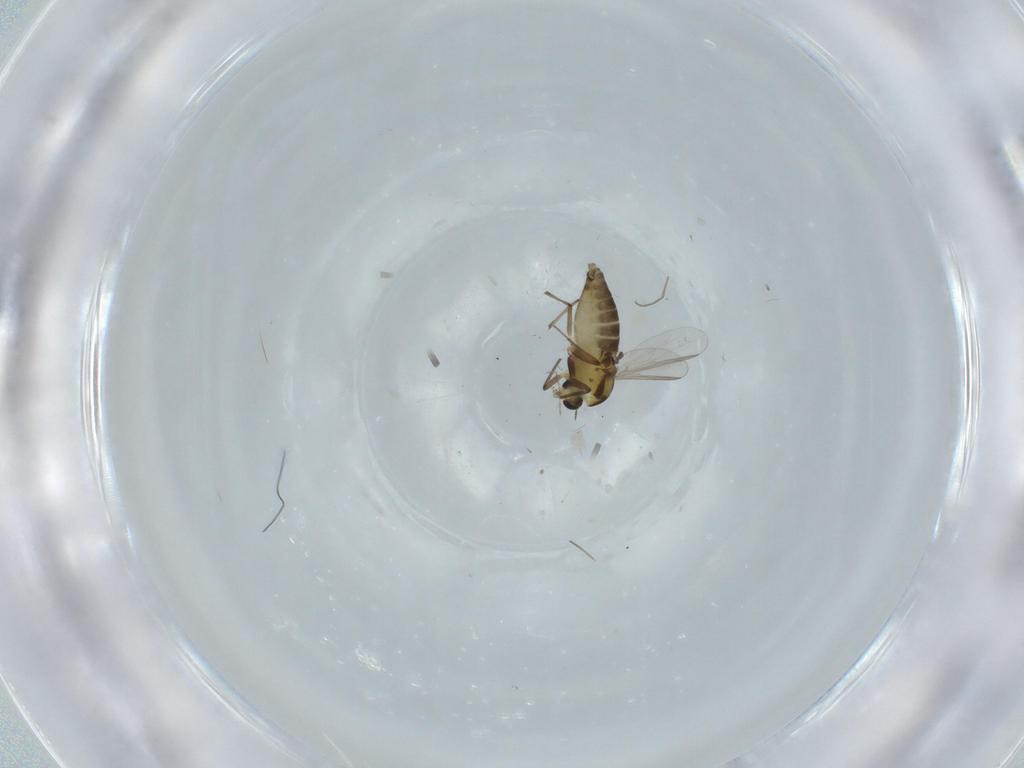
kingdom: Animalia
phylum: Arthropoda
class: Insecta
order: Diptera
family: Chironomidae
